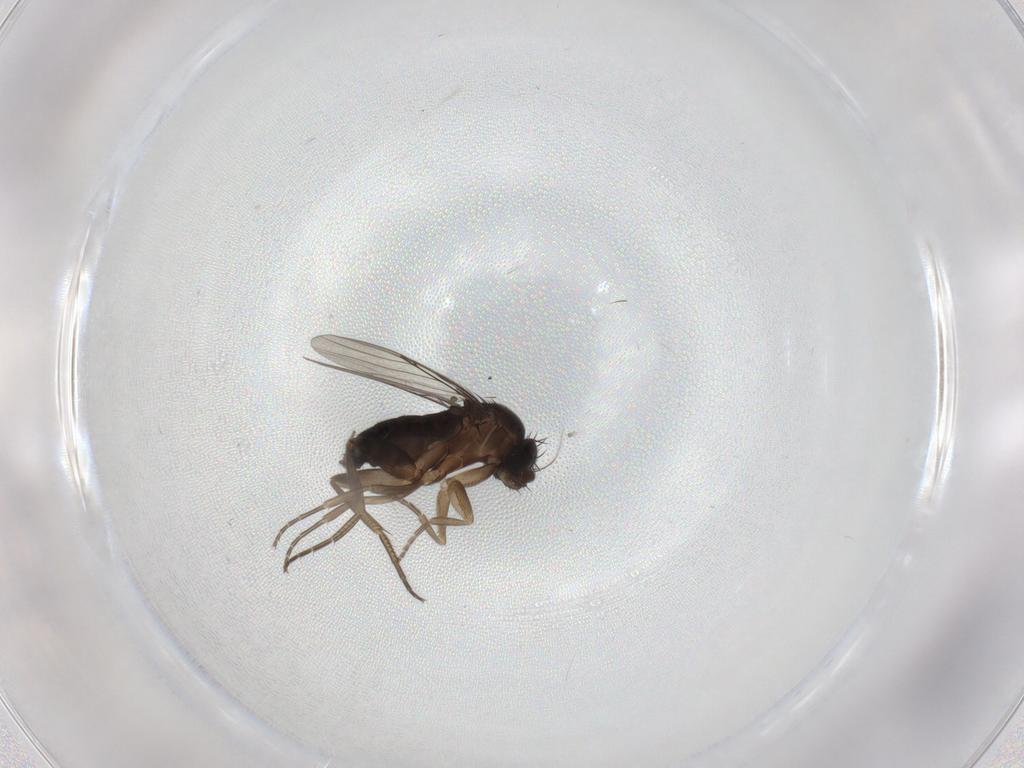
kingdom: Animalia
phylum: Arthropoda
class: Insecta
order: Diptera
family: Phoridae
